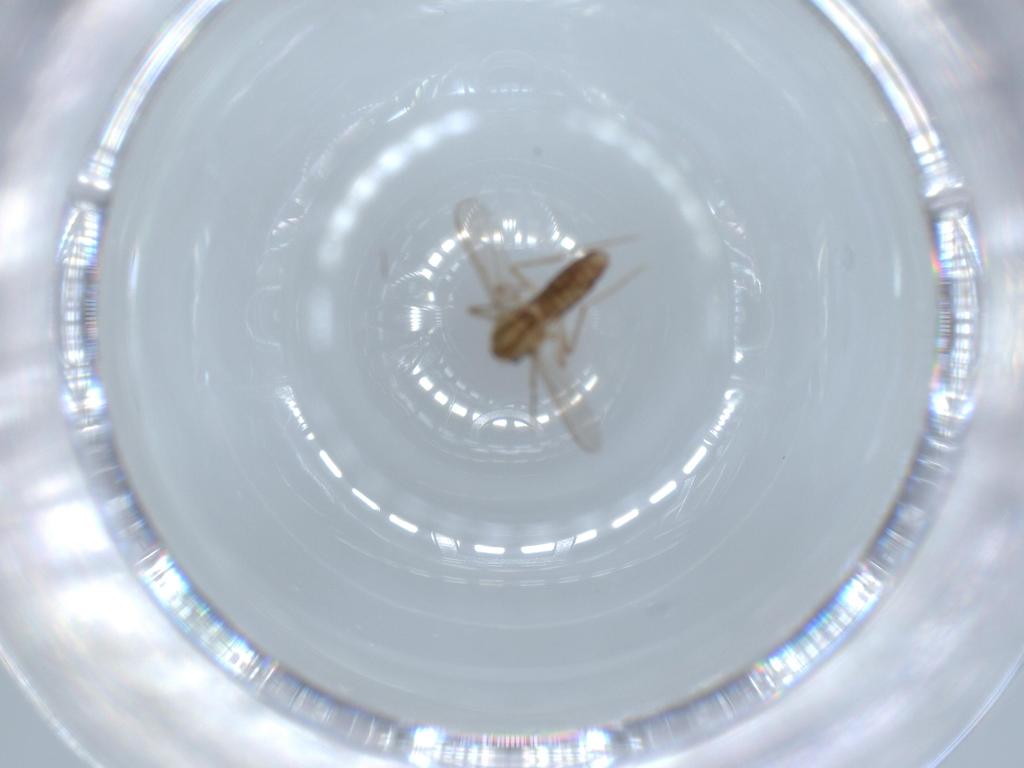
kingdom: Animalia
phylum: Arthropoda
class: Insecta
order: Diptera
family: Chironomidae
